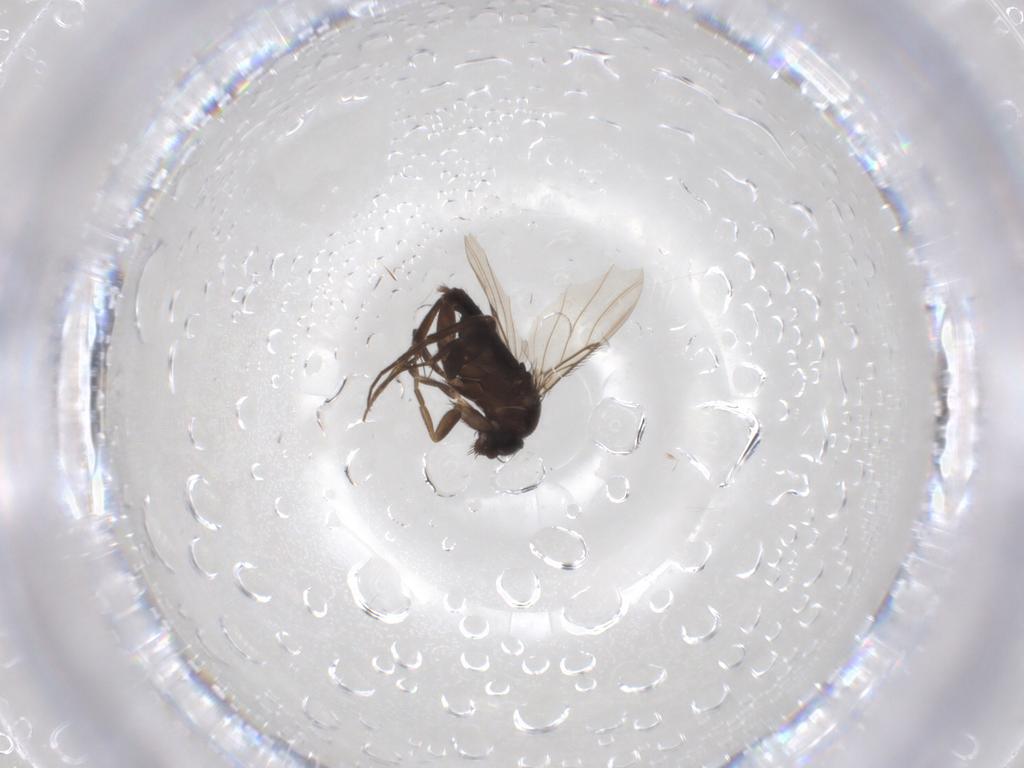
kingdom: Animalia
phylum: Arthropoda
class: Insecta
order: Diptera
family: Phoridae
